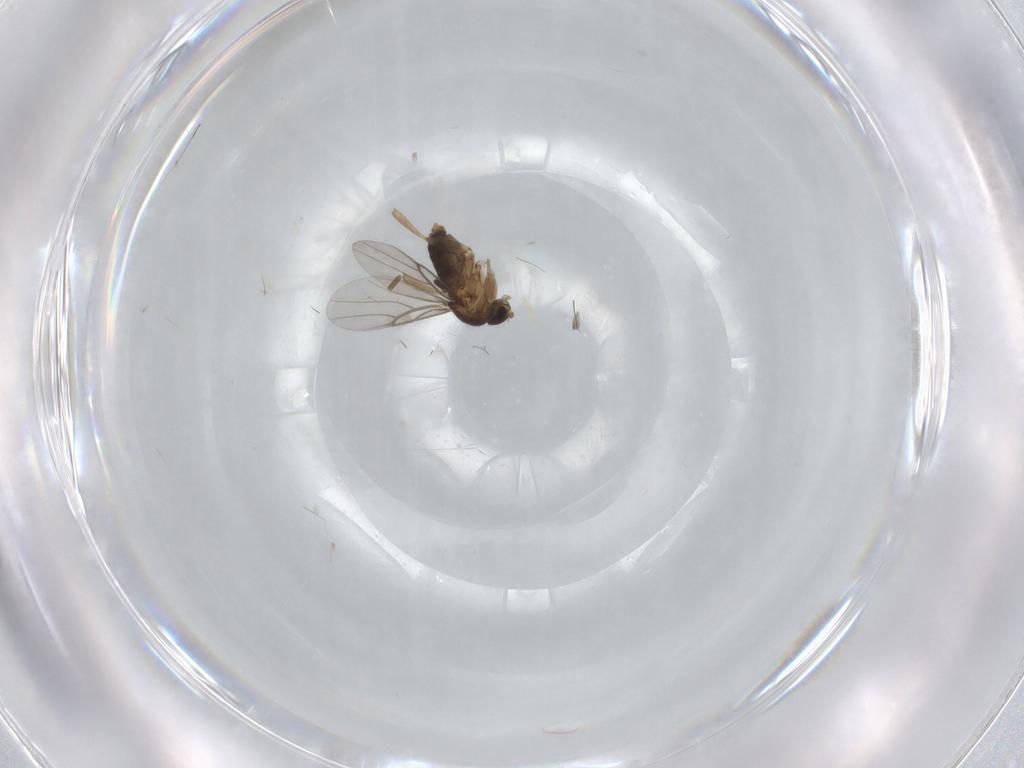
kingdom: Animalia
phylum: Arthropoda
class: Insecta
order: Diptera
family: Phoridae
